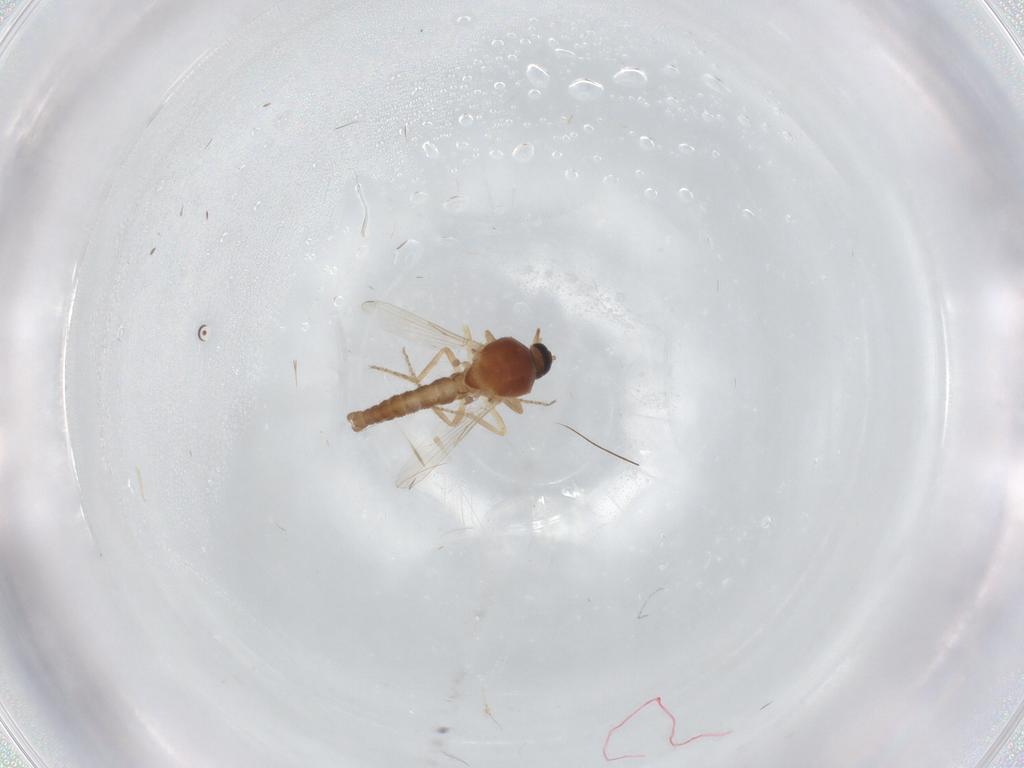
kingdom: Animalia
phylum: Arthropoda
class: Insecta
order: Diptera
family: Ceratopogonidae
